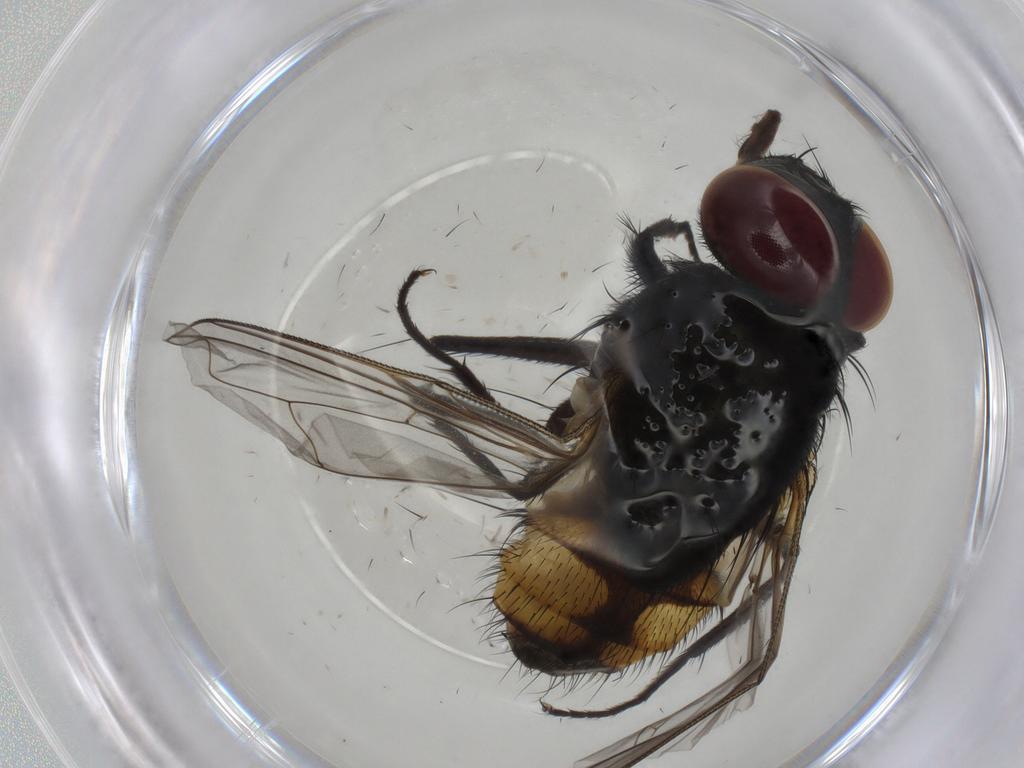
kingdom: Animalia
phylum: Arthropoda
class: Insecta
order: Diptera
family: Muscidae
